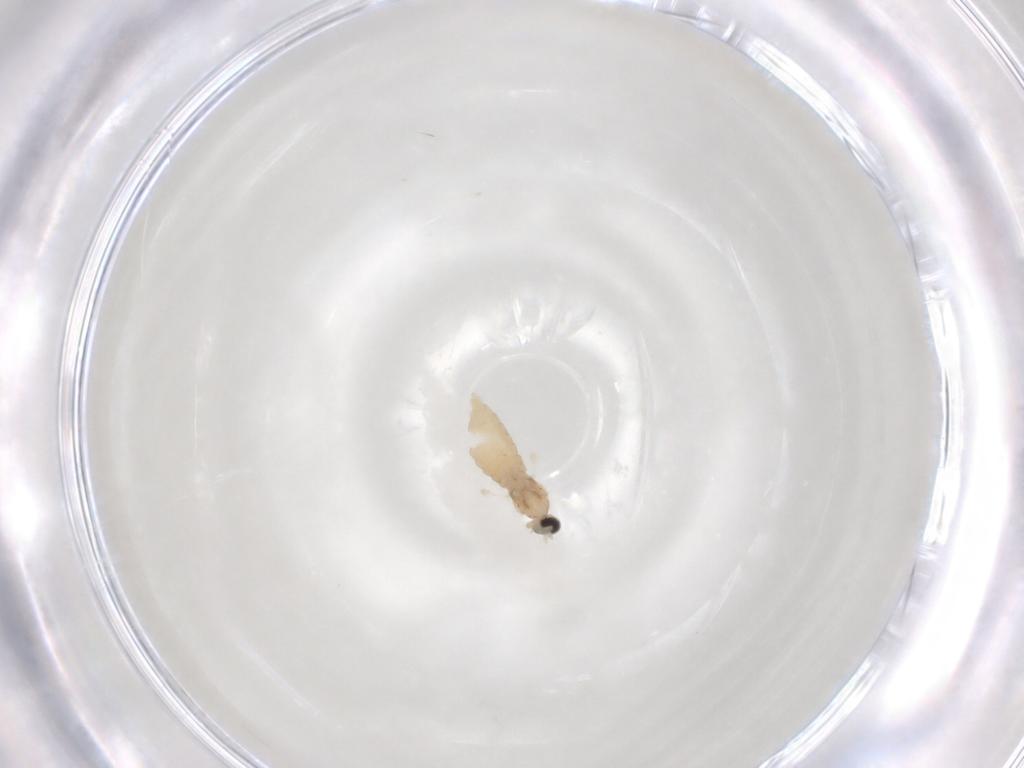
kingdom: Animalia
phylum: Arthropoda
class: Insecta
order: Diptera
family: Cecidomyiidae
